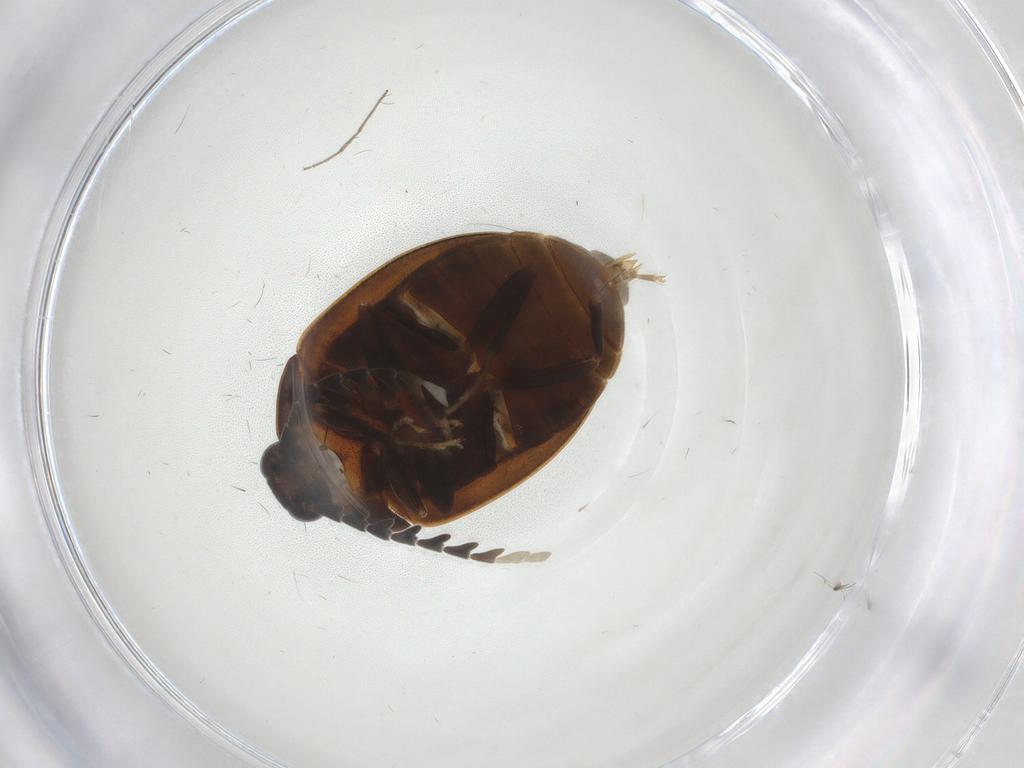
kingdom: Animalia
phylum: Arthropoda
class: Insecta
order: Coleoptera
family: Psephenidae
